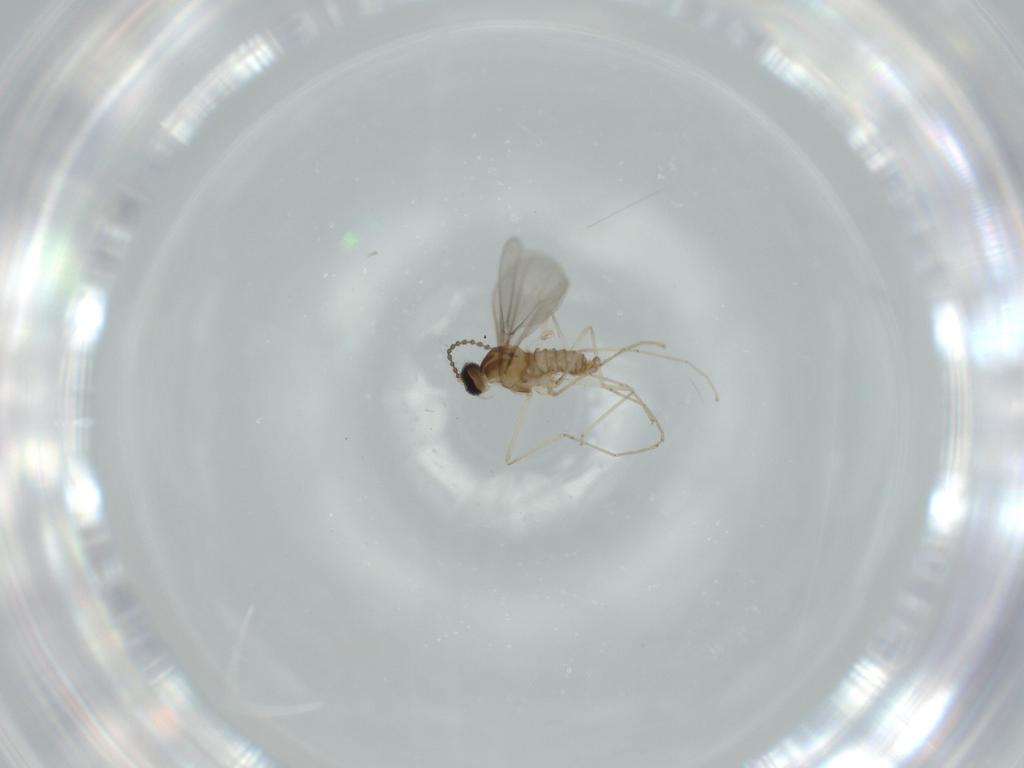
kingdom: Animalia
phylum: Arthropoda
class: Insecta
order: Diptera
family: Cecidomyiidae
